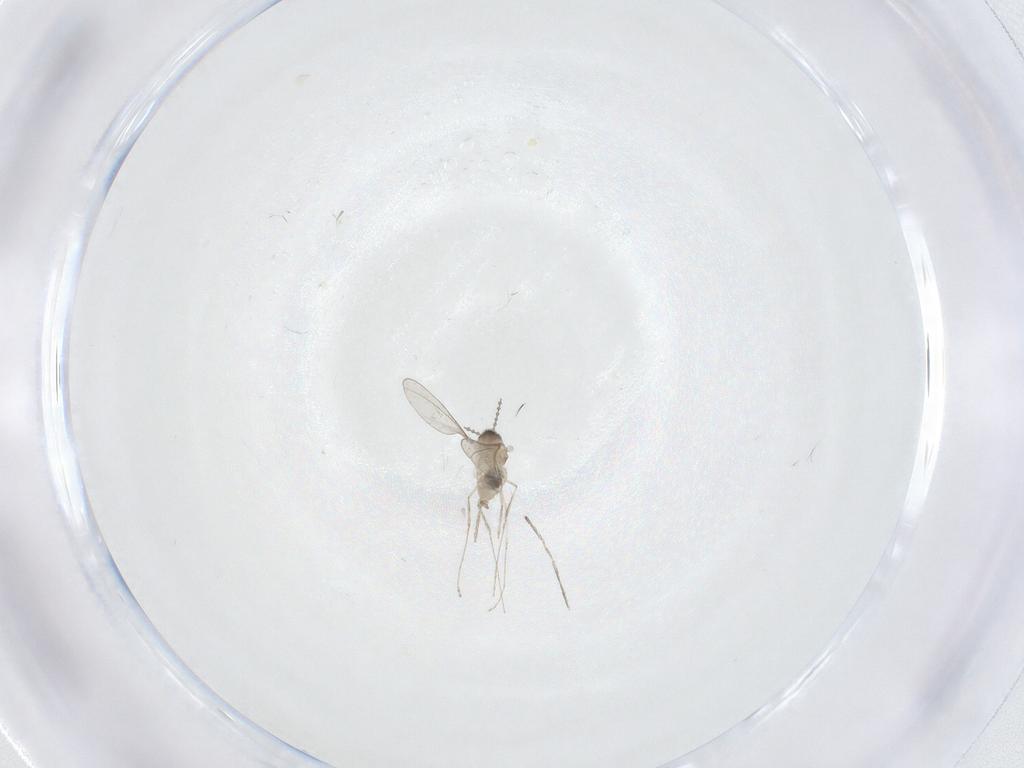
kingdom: Animalia
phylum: Arthropoda
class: Insecta
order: Diptera
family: Cecidomyiidae
